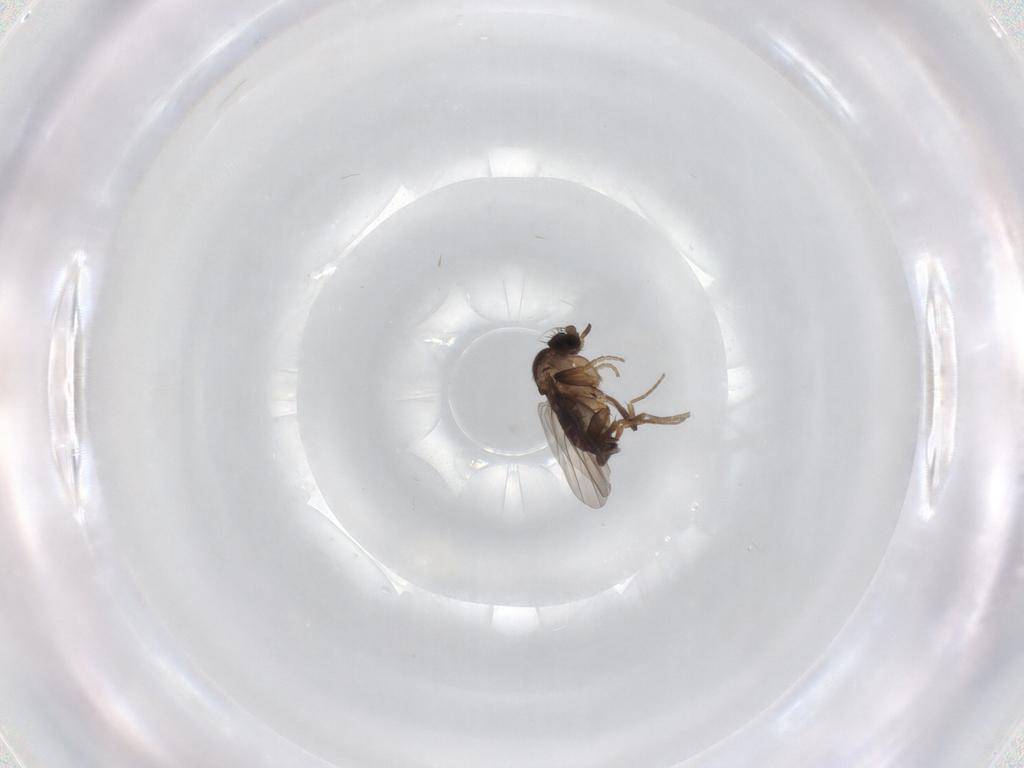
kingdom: Animalia
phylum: Arthropoda
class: Insecta
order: Diptera
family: Phoridae
